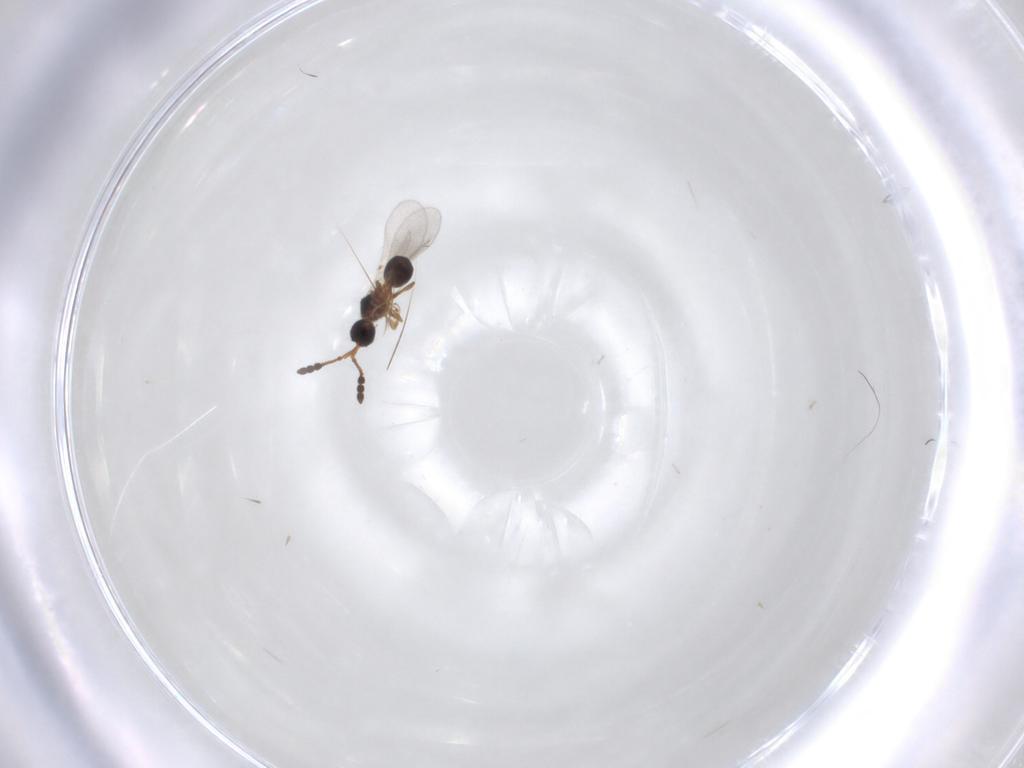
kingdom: Animalia
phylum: Arthropoda
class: Insecta
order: Hymenoptera
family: Diapriidae
